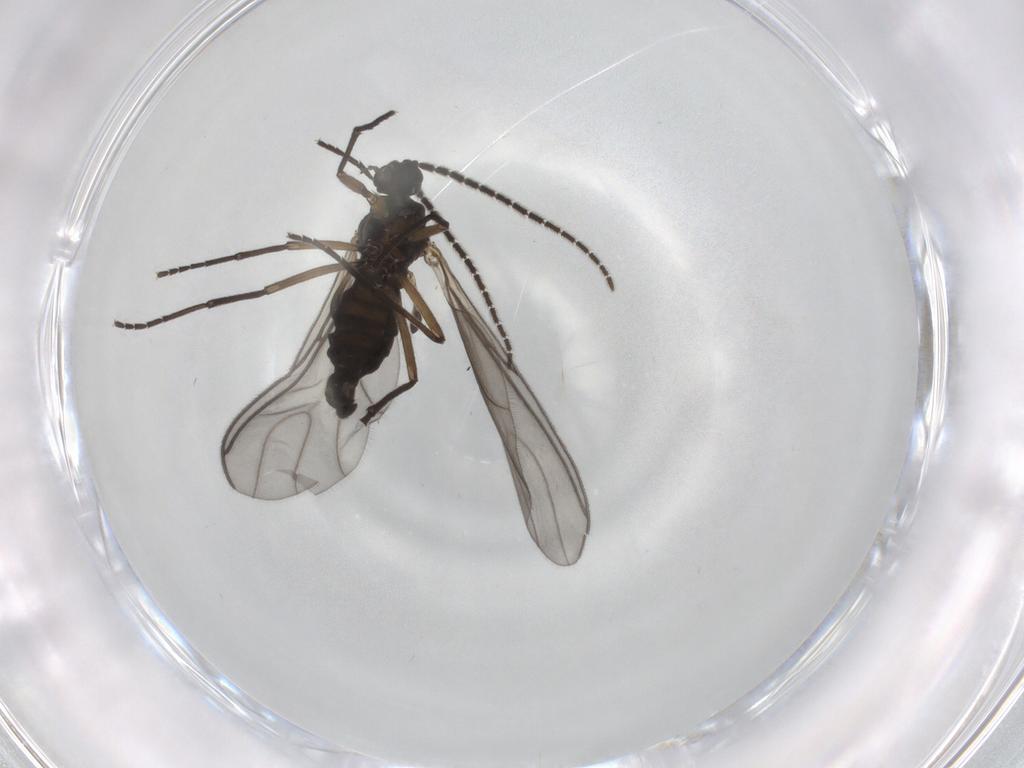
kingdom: Animalia
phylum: Arthropoda
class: Insecta
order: Diptera
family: Sciaridae
